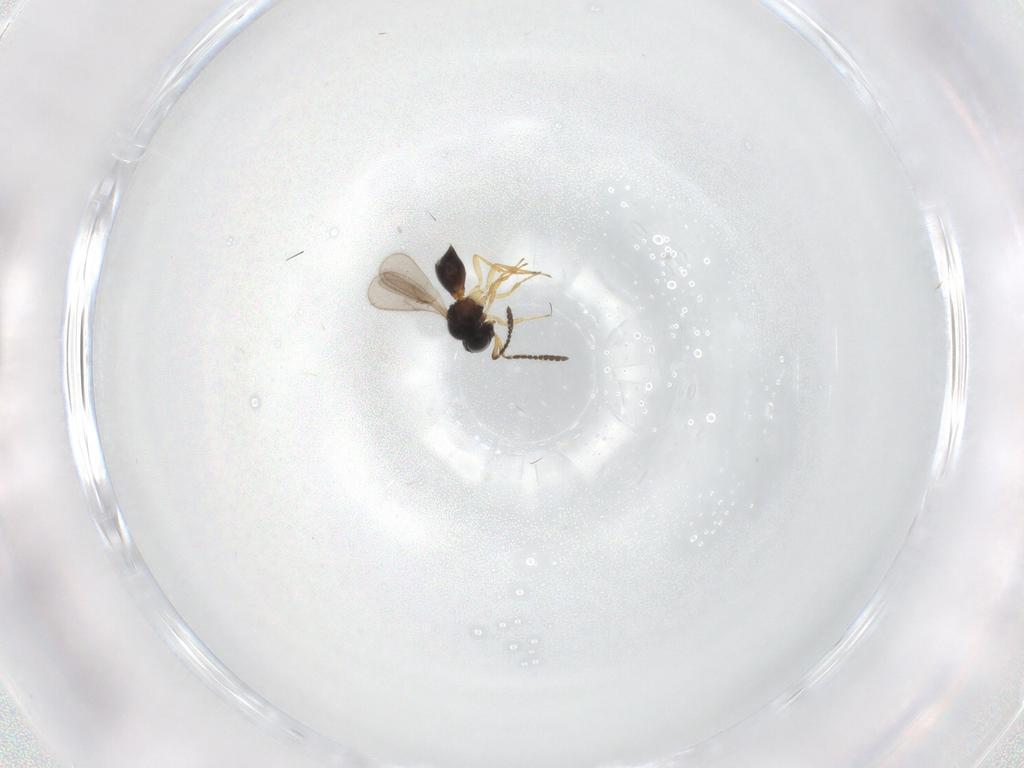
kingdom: Animalia
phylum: Arthropoda
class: Insecta
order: Hymenoptera
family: Scelionidae
